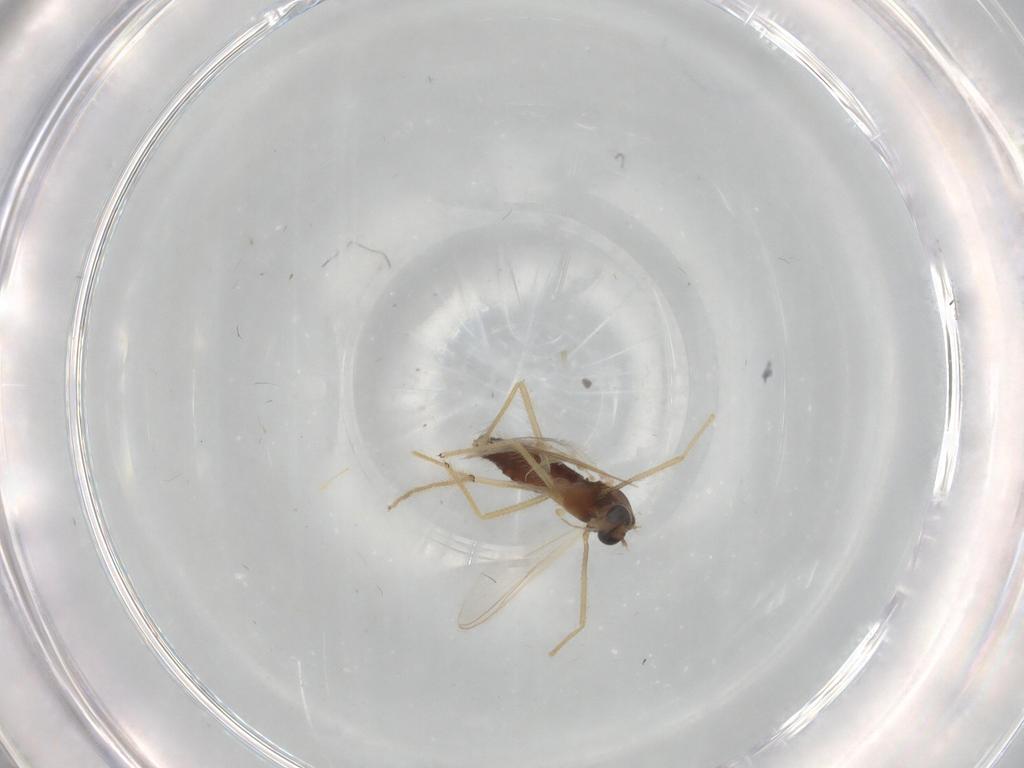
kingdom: Animalia
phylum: Arthropoda
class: Insecta
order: Diptera
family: Chironomidae
